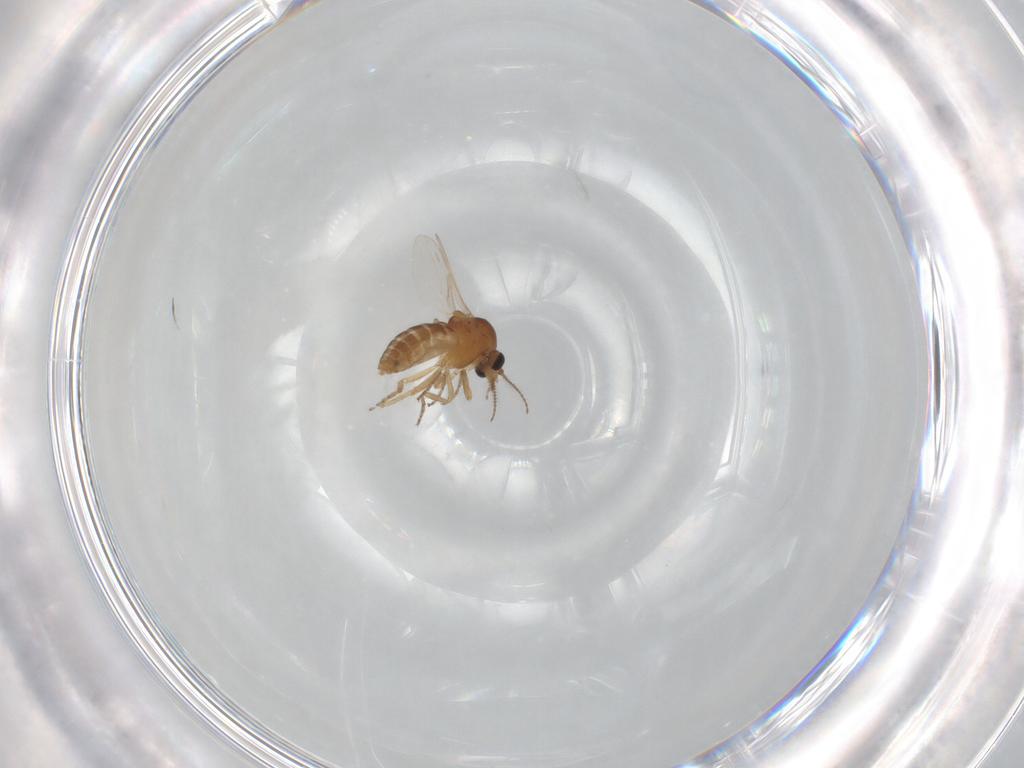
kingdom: Animalia
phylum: Arthropoda
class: Insecta
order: Diptera
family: Ceratopogonidae
